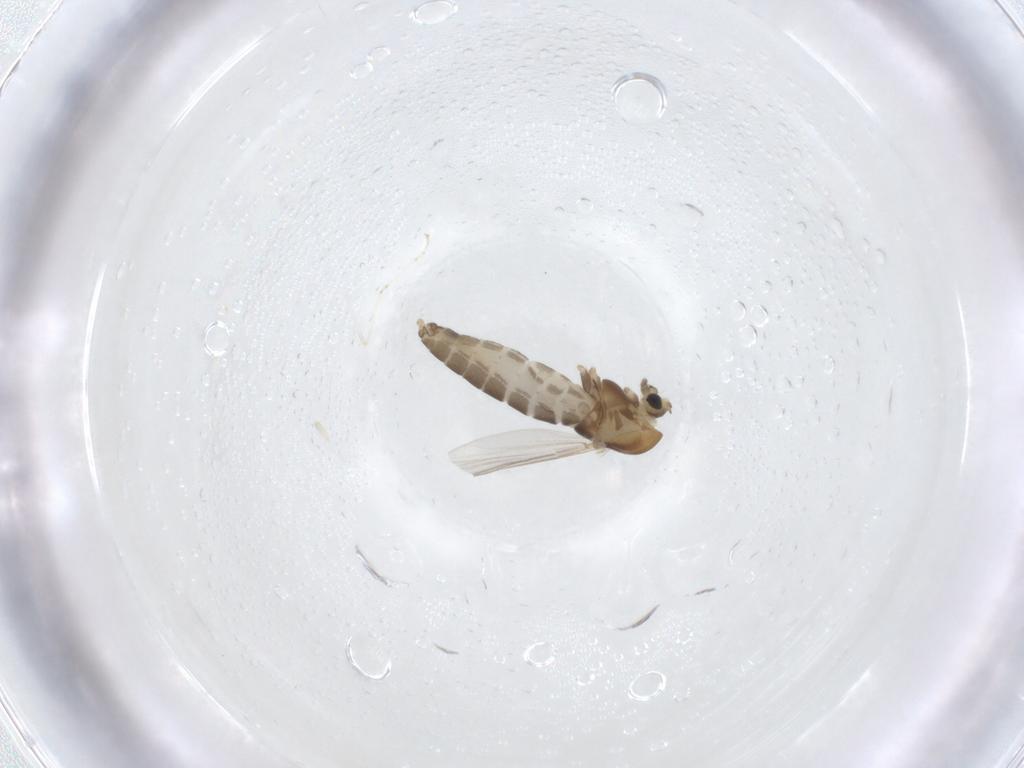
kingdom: Animalia
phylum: Arthropoda
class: Insecta
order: Diptera
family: Chironomidae
